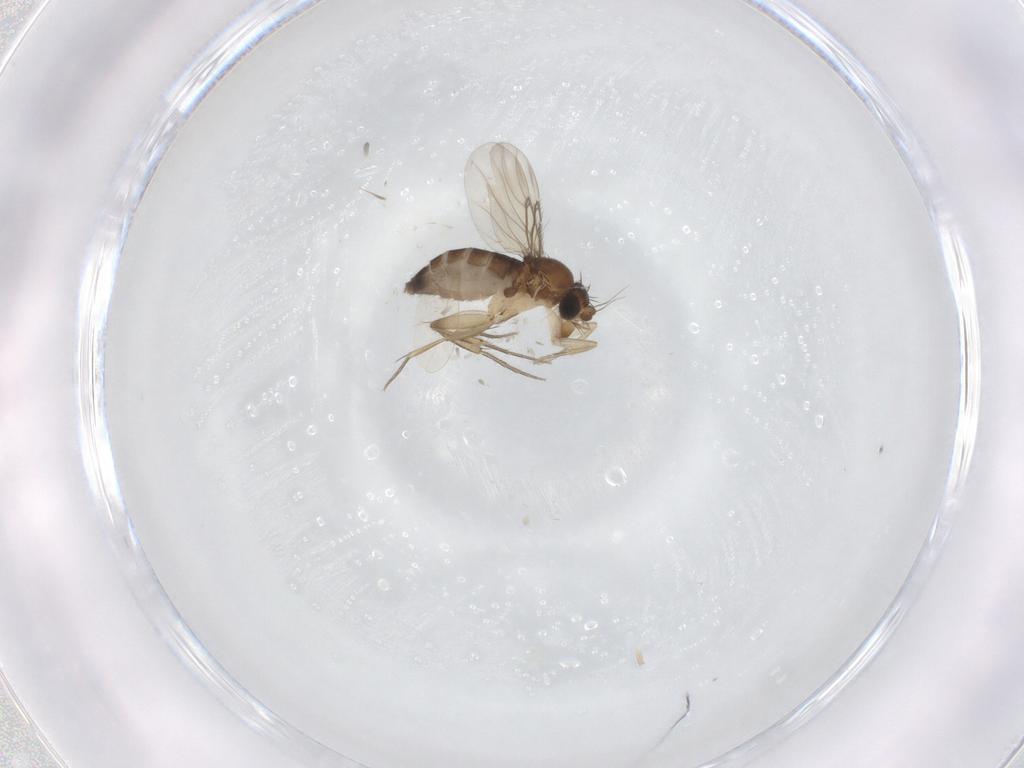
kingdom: Animalia
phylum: Arthropoda
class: Insecta
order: Diptera
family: Phoridae
